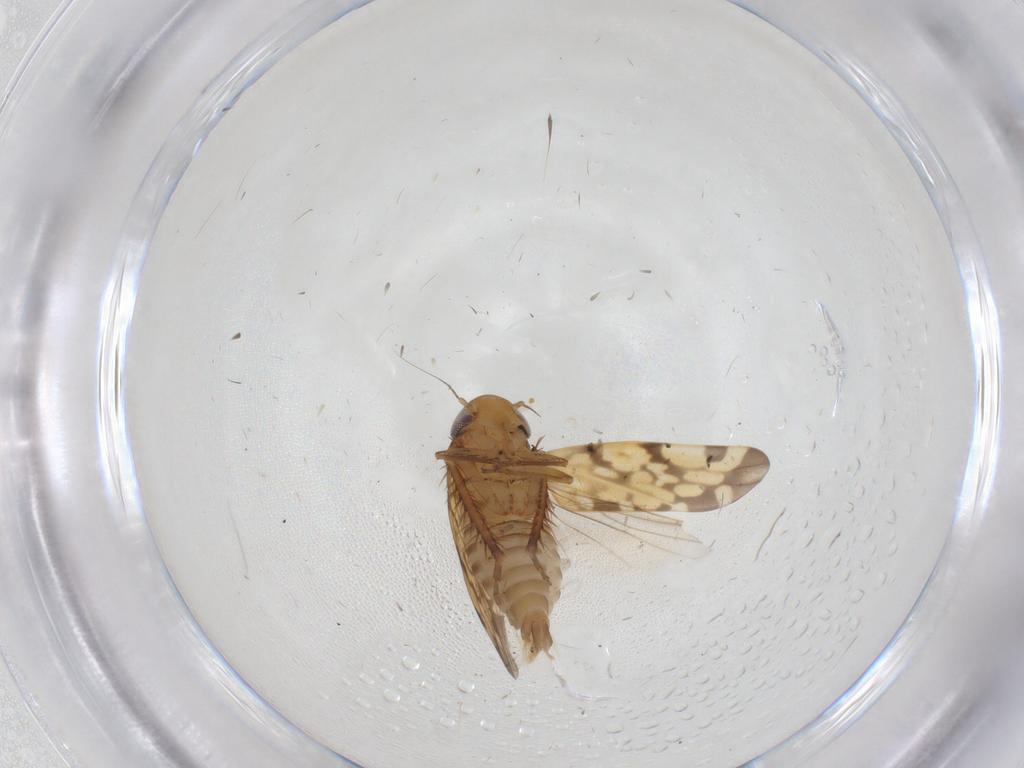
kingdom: Animalia
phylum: Arthropoda
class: Insecta
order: Hemiptera
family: Cicadellidae
